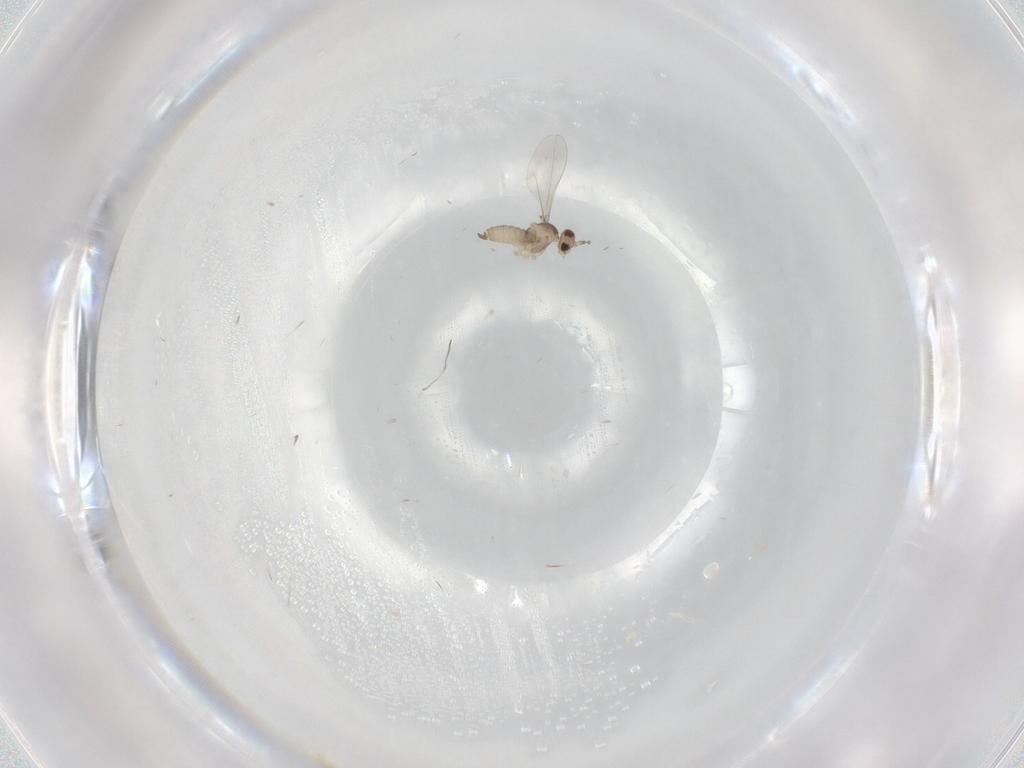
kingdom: Animalia
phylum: Arthropoda
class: Insecta
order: Diptera
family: Cecidomyiidae
